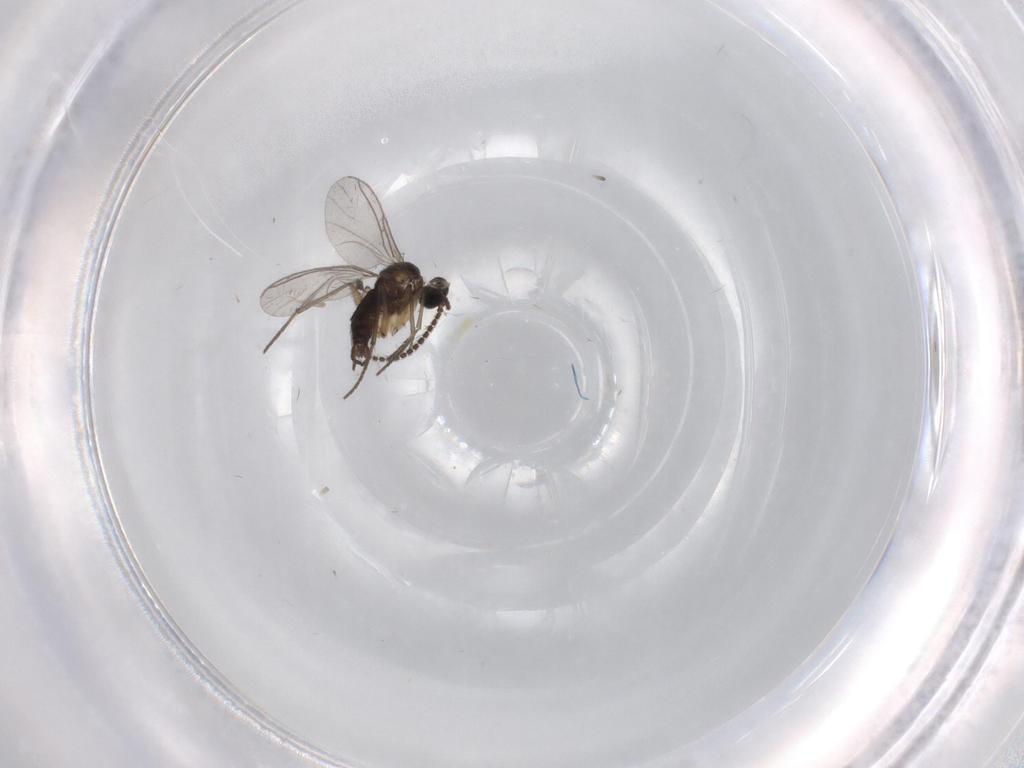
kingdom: Animalia
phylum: Arthropoda
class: Insecta
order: Diptera
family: Sciaridae
